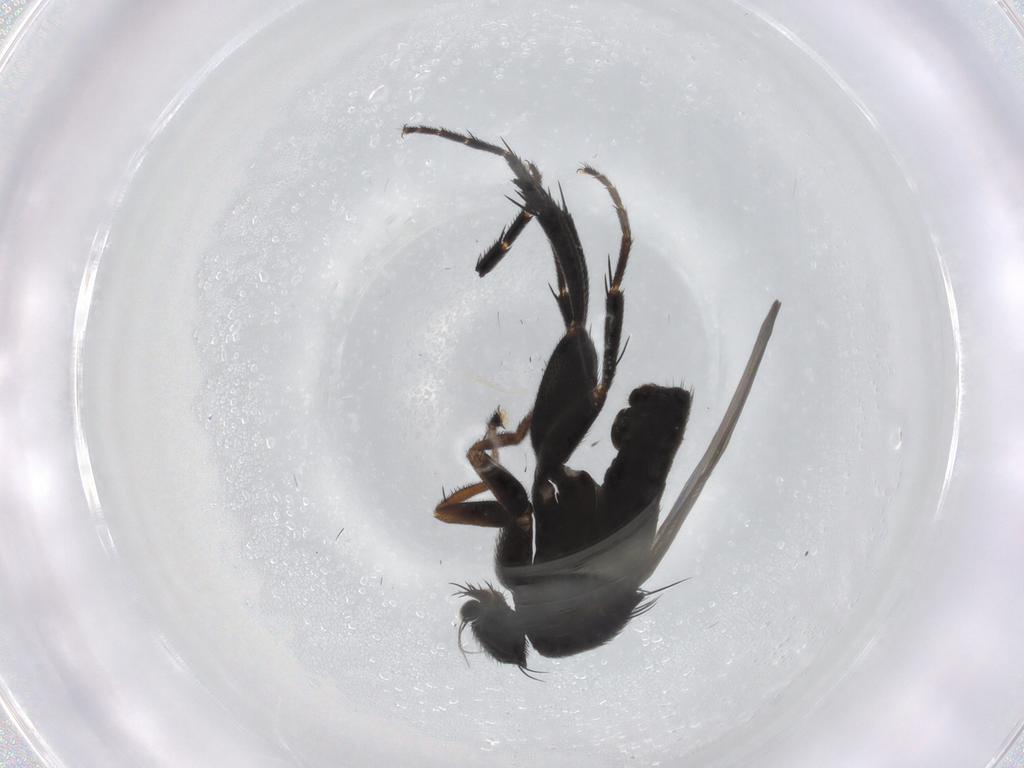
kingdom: Animalia
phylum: Arthropoda
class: Insecta
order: Diptera
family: Phoridae
